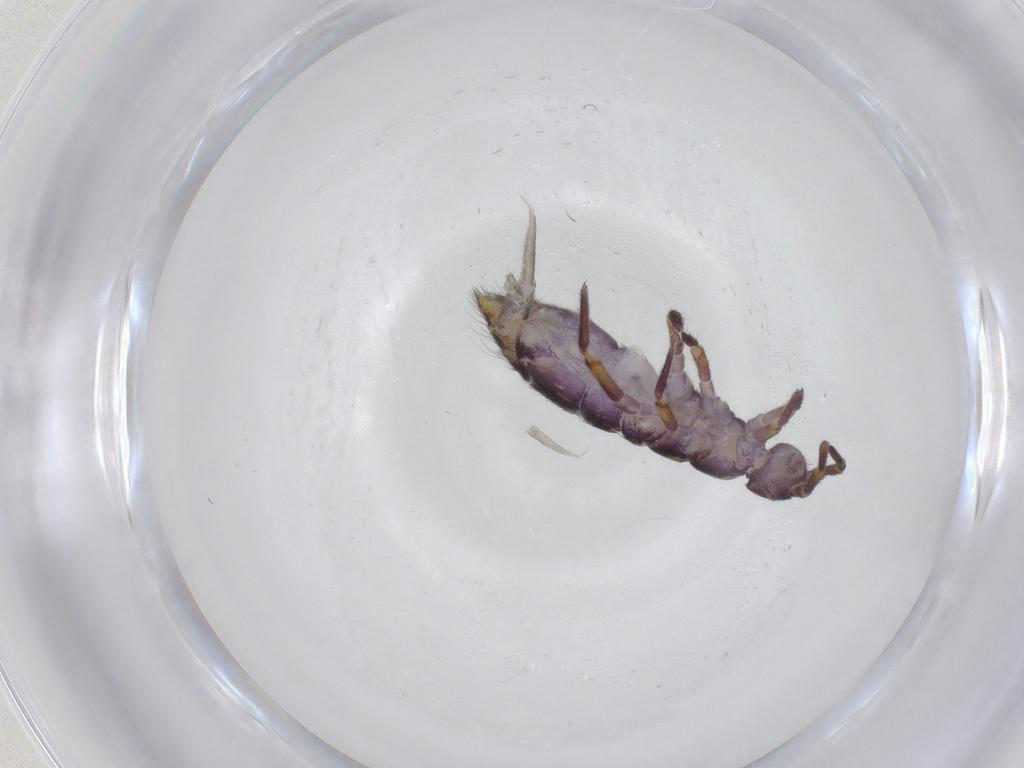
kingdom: Animalia
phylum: Arthropoda
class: Collembola
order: Entomobryomorpha
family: Isotomidae
